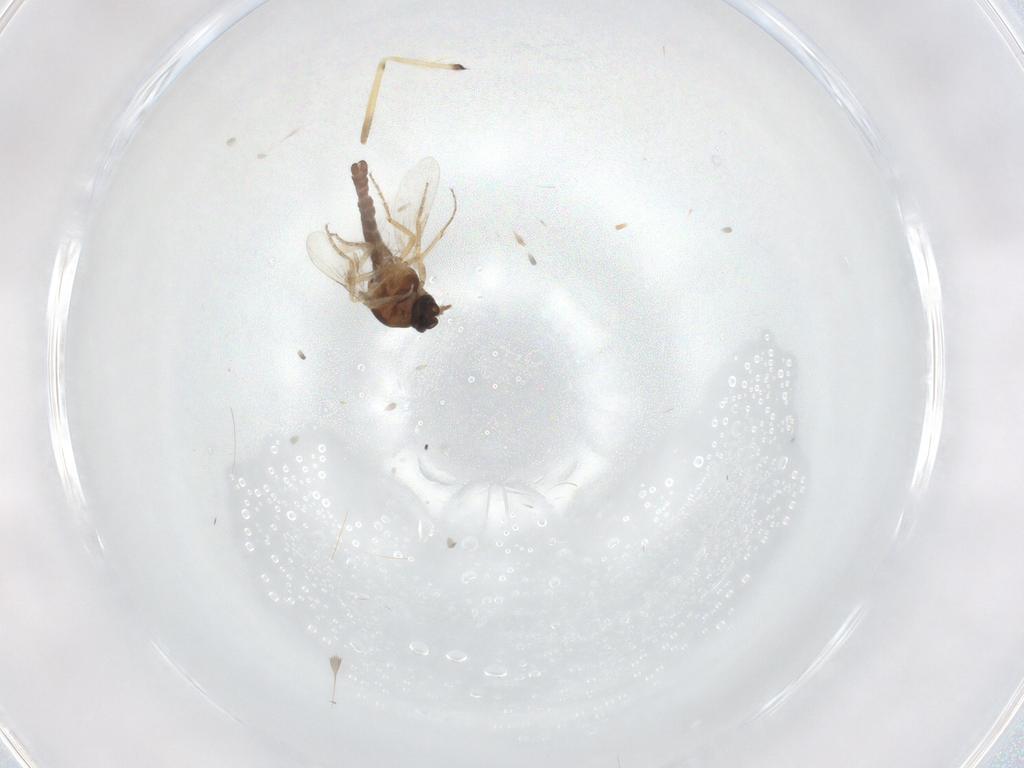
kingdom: Animalia
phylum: Arthropoda
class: Insecta
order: Diptera
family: Ceratopogonidae
